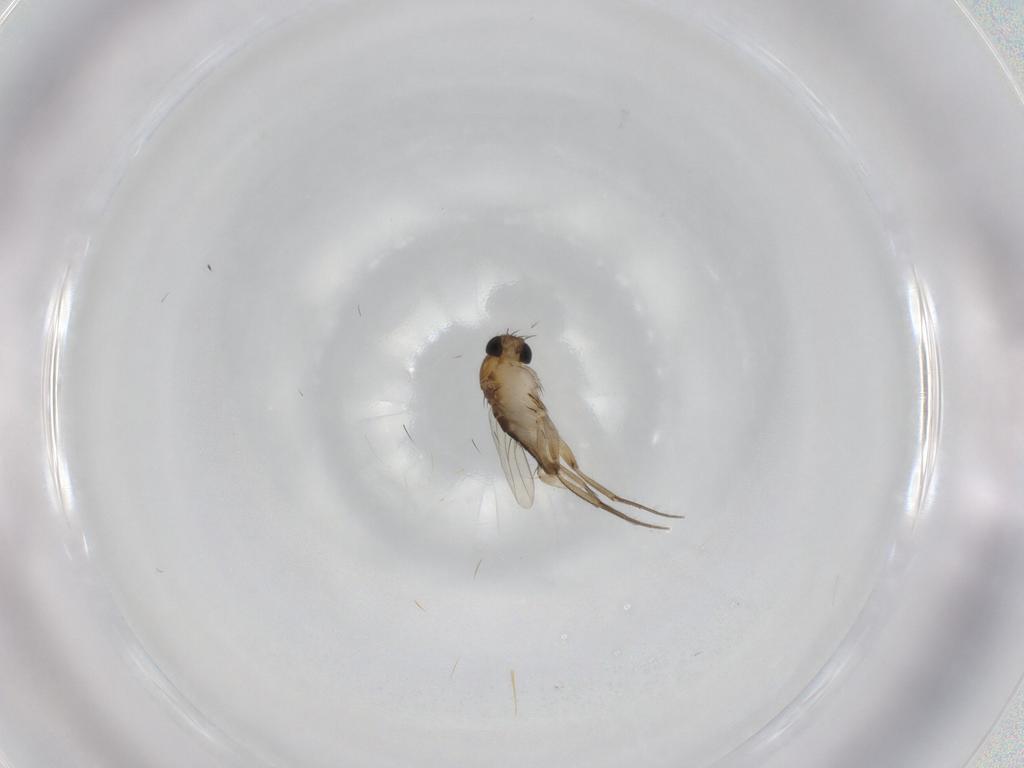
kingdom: Animalia
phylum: Arthropoda
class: Insecta
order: Diptera
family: Phoridae
